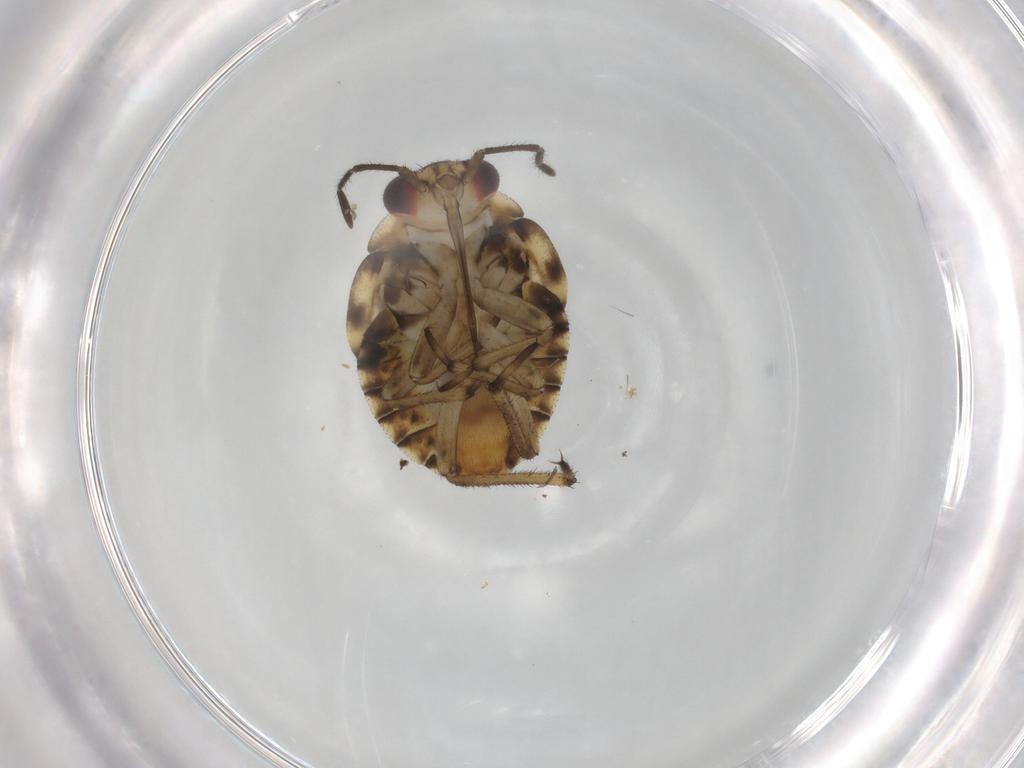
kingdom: Animalia
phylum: Arthropoda
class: Insecta
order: Hemiptera
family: Saldidae
